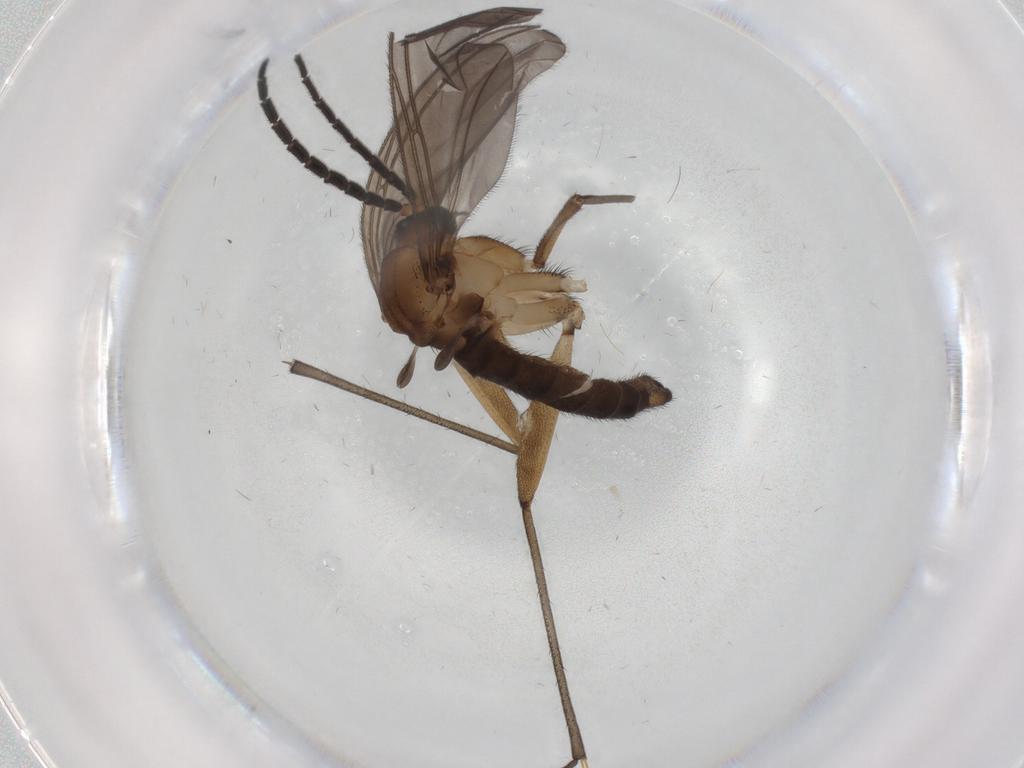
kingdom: Animalia
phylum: Arthropoda
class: Insecta
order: Diptera
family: Sciaridae
